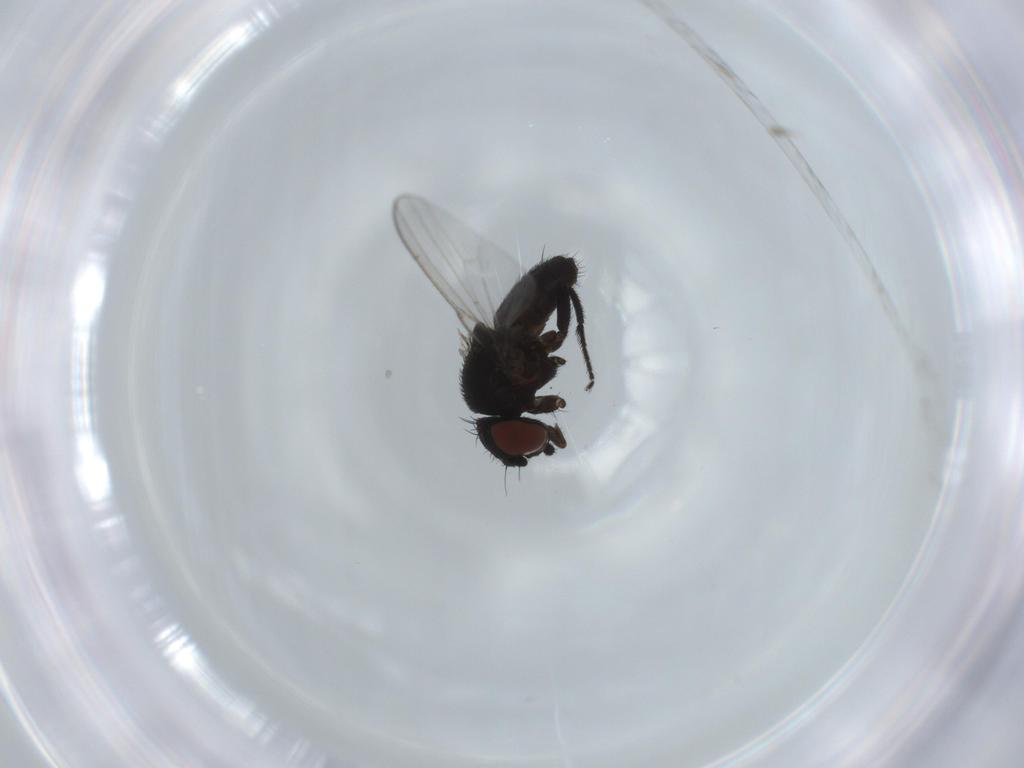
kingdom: Animalia
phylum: Arthropoda
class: Insecta
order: Diptera
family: Milichiidae
